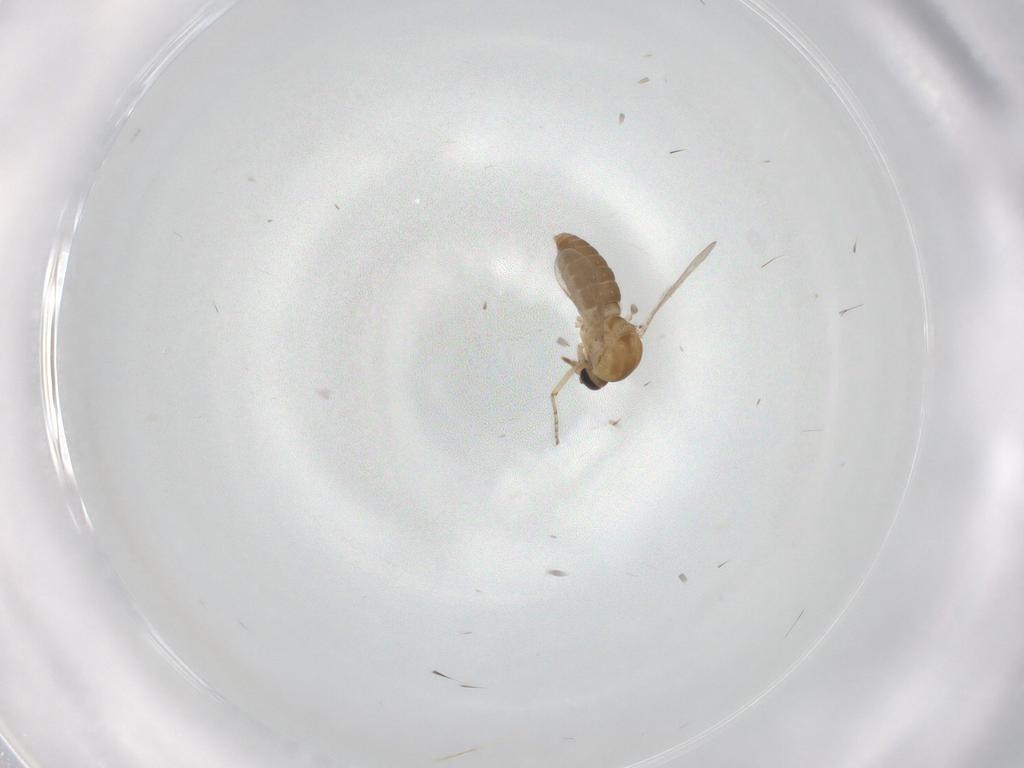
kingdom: Animalia
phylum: Arthropoda
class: Insecta
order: Diptera
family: Ceratopogonidae
